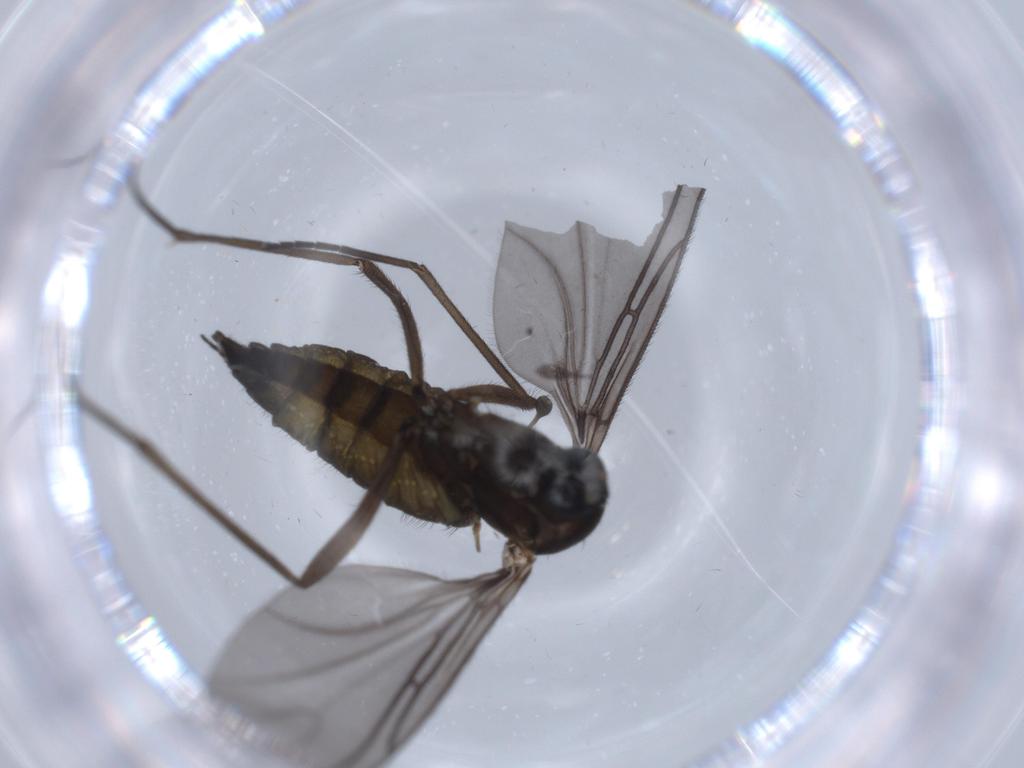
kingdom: Animalia
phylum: Arthropoda
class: Insecta
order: Diptera
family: Sciaridae
